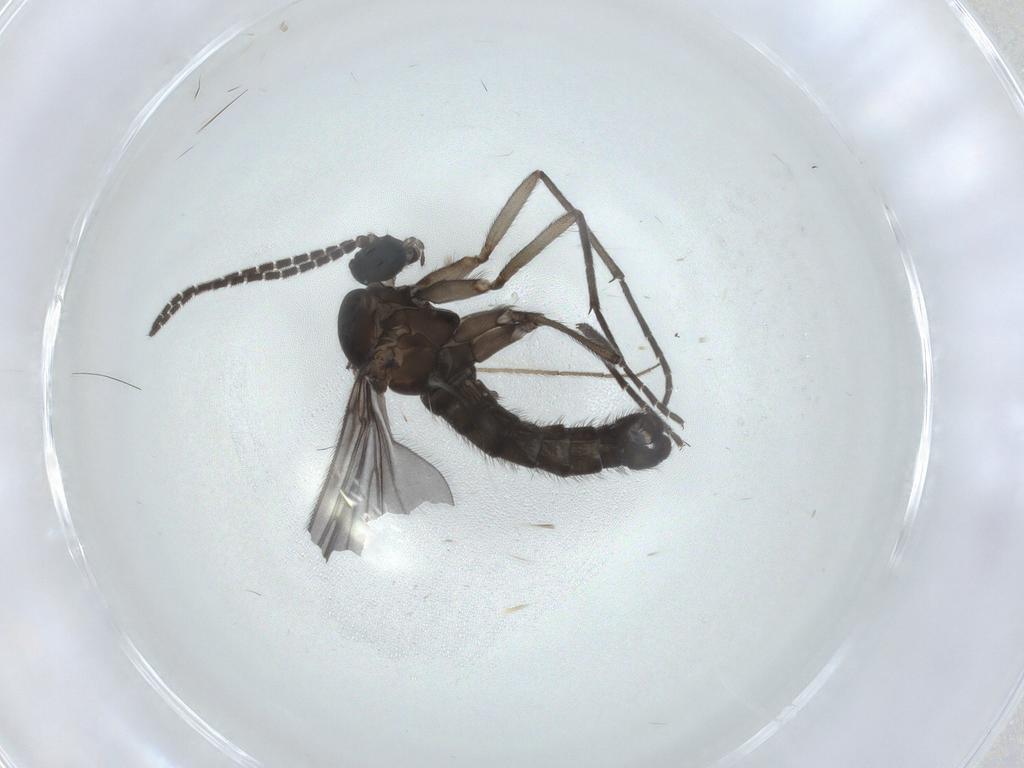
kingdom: Animalia
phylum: Arthropoda
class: Insecta
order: Diptera
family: Sciaridae
